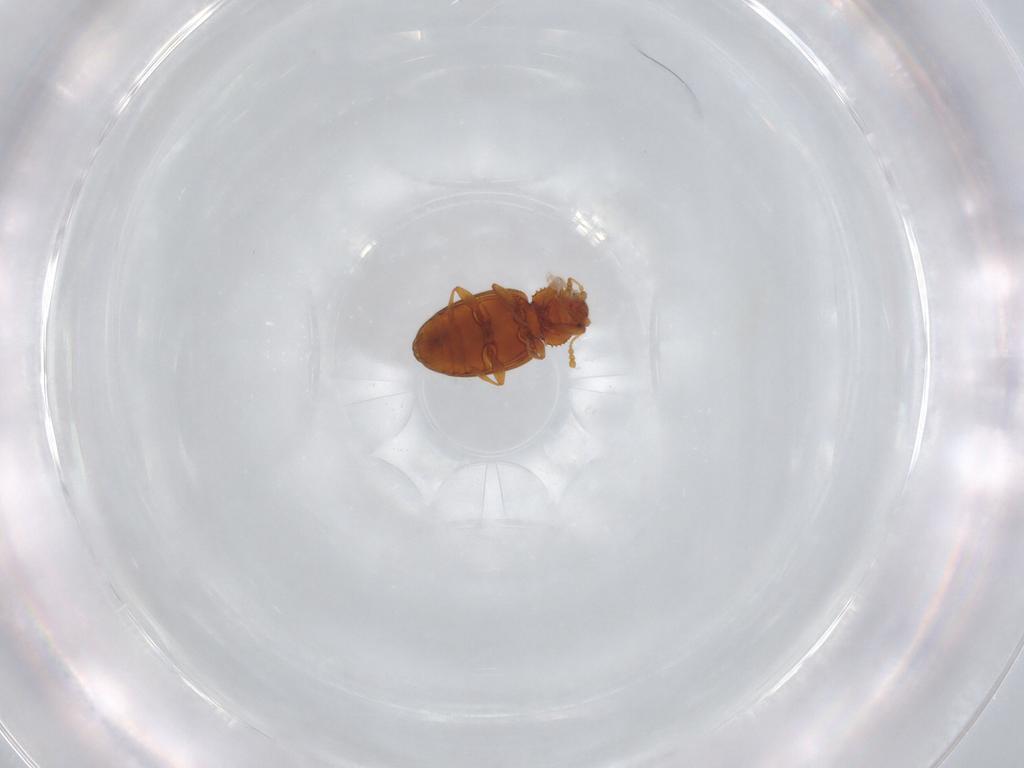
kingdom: Animalia
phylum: Arthropoda
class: Insecta
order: Coleoptera
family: Latridiidae
